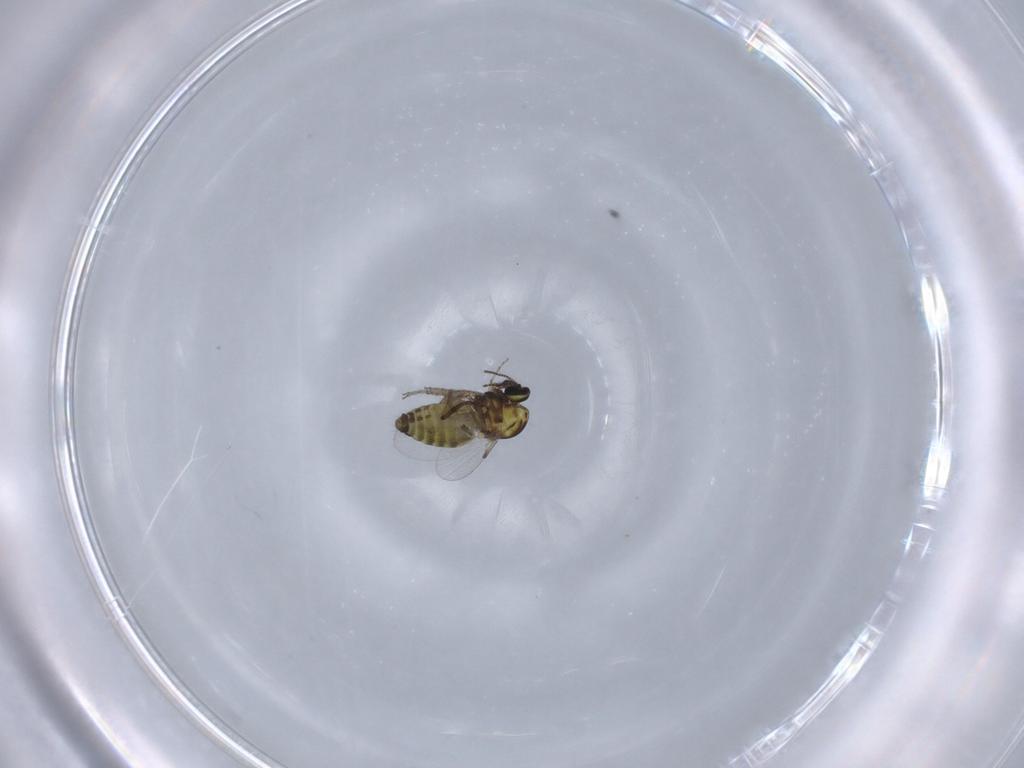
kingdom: Animalia
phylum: Arthropoda
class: Insecta
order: Diptera
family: Ceratopogonidae
